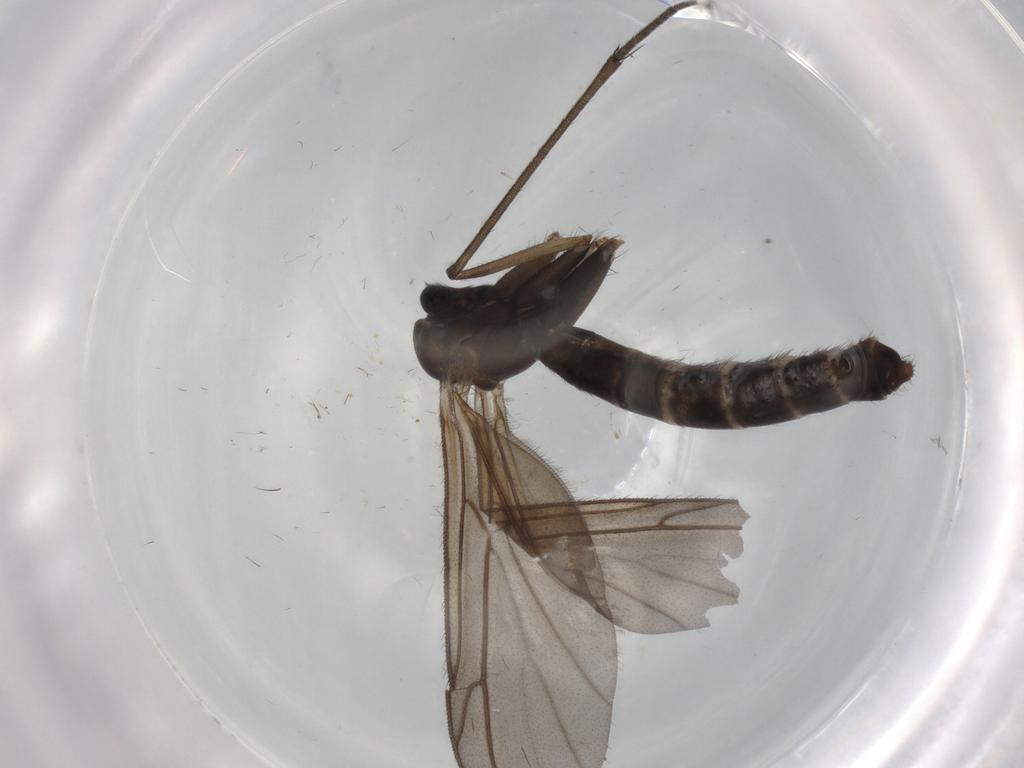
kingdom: Animalia
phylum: Arthropoda
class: Insecta
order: Diptera
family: Ditomyiidae
